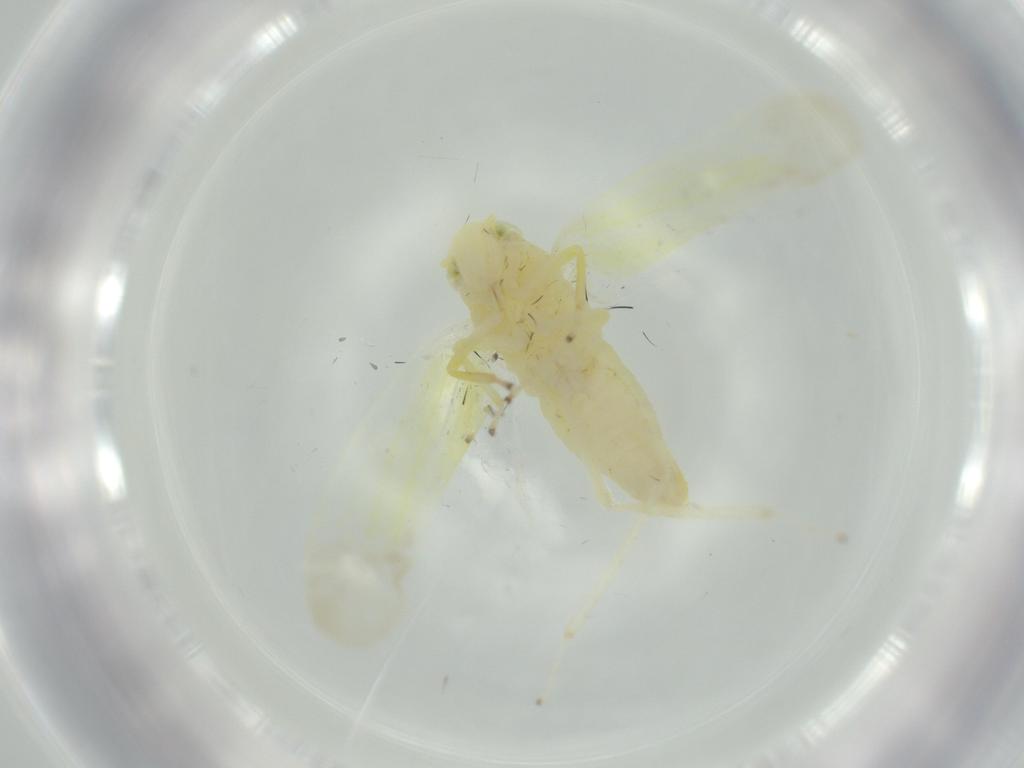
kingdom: Animalia
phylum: Arthropoda
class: Insecta
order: Hemiptera
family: Cicadellidae
